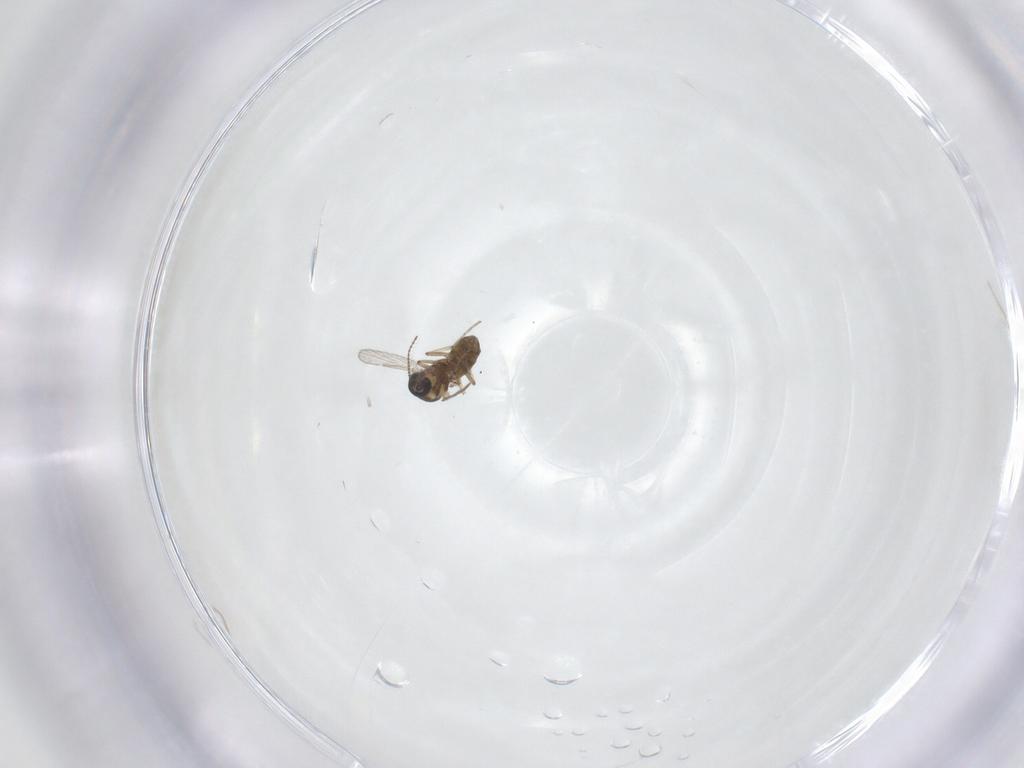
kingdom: Animalia
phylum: Arthropoda
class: Insecta
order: Diptera
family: Ceratopogonidae
